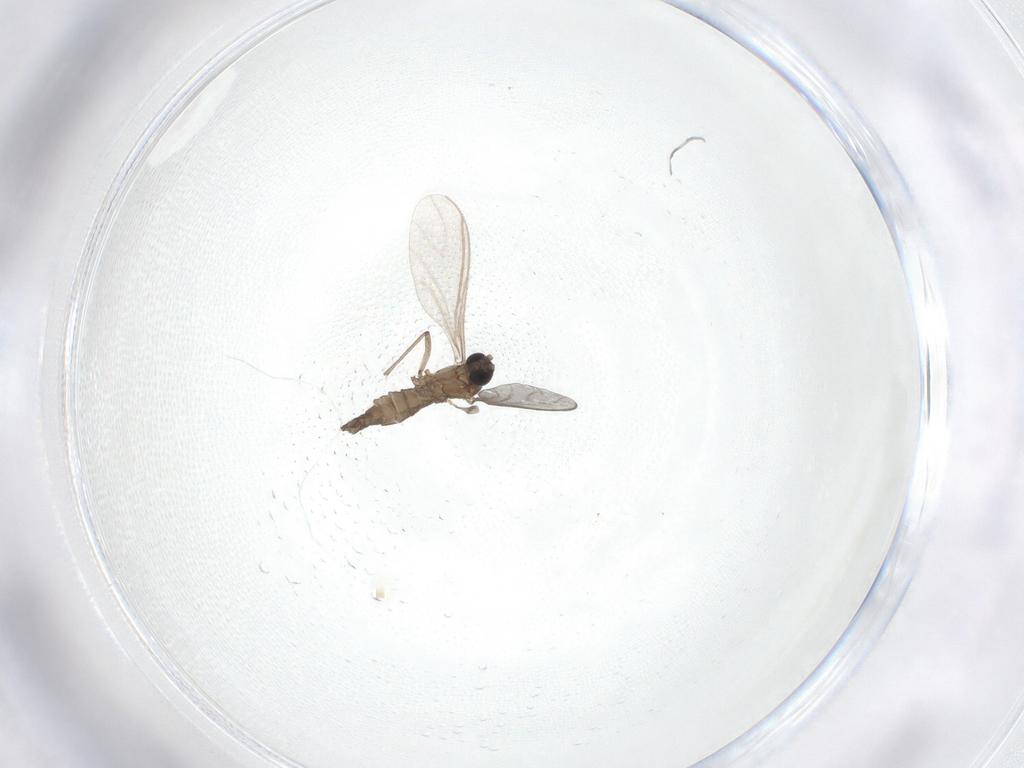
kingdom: Animalia
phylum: Arthropoda
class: Insecta
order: Diptera
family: Sciaridae
